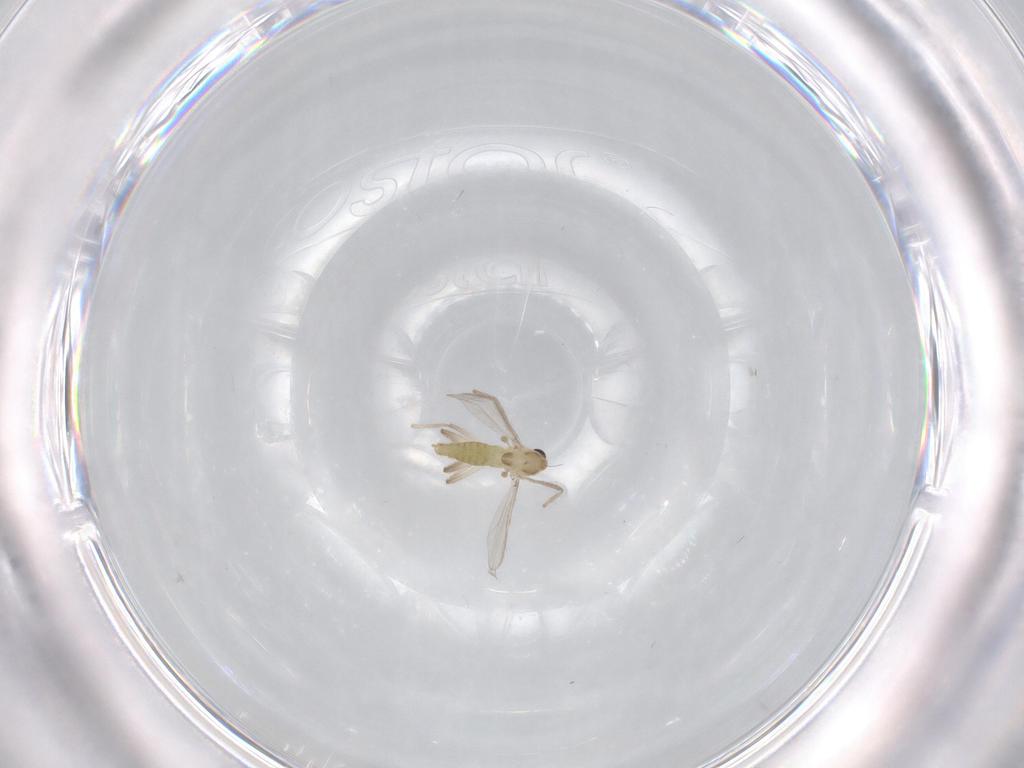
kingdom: Animalia
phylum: Arthropoda
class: Insecta
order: Diptera
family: Chironomidae
